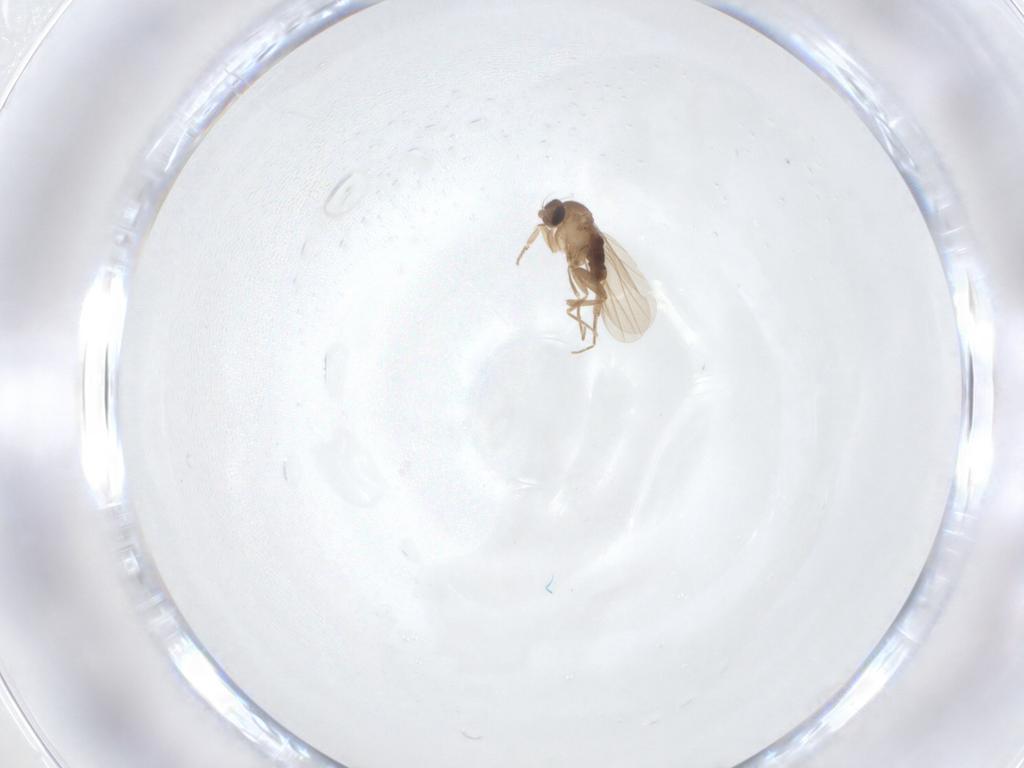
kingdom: Animalia
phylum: Arthropoda
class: Insecta
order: Diptera
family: Phoridae
